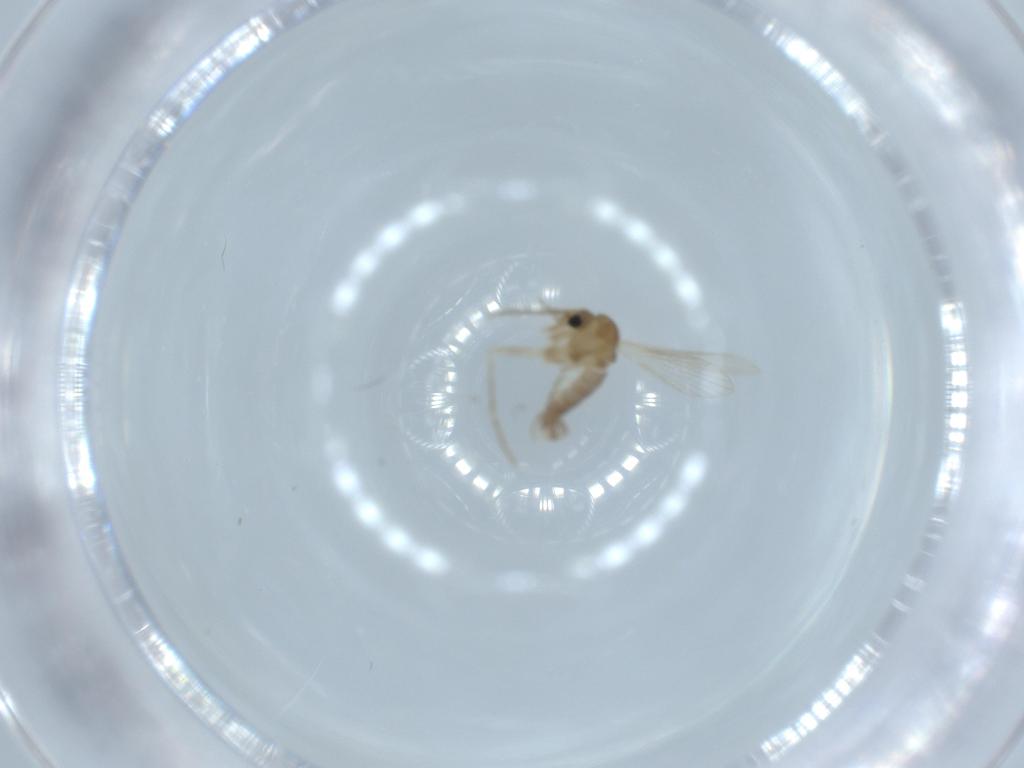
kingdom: Animalia
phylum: Arthropoda
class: Insecta
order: Diptera
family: Psychodidae
